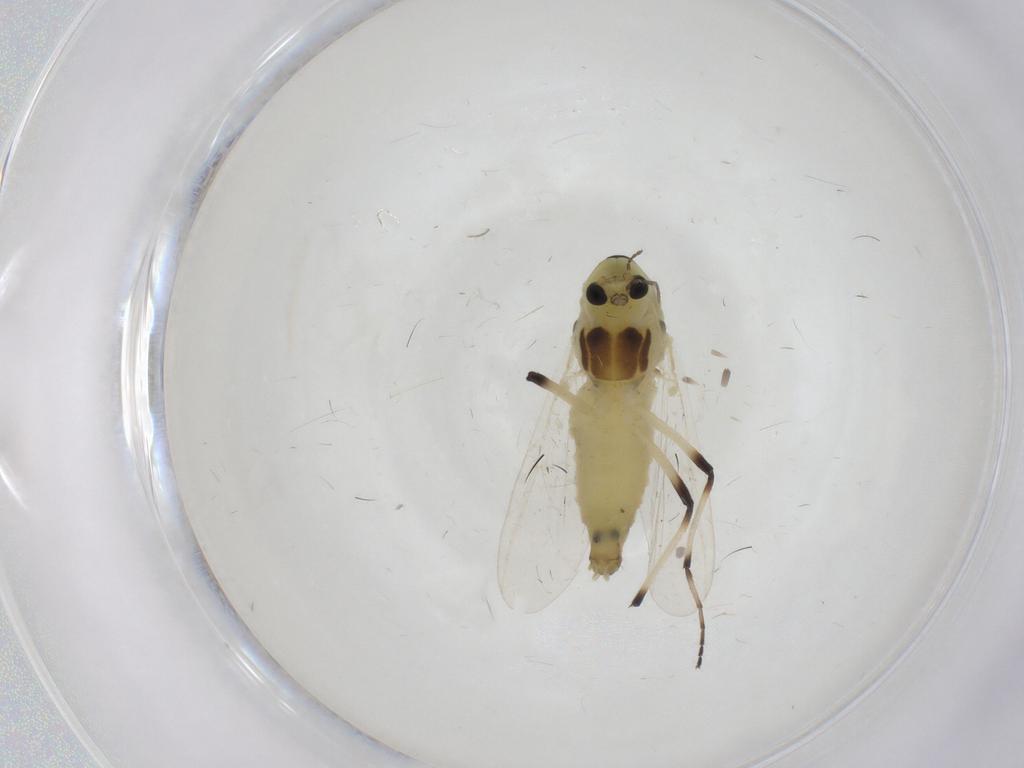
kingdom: Animalia
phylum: Arthropoda
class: Insecta
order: Diptera
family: Chironomidae
